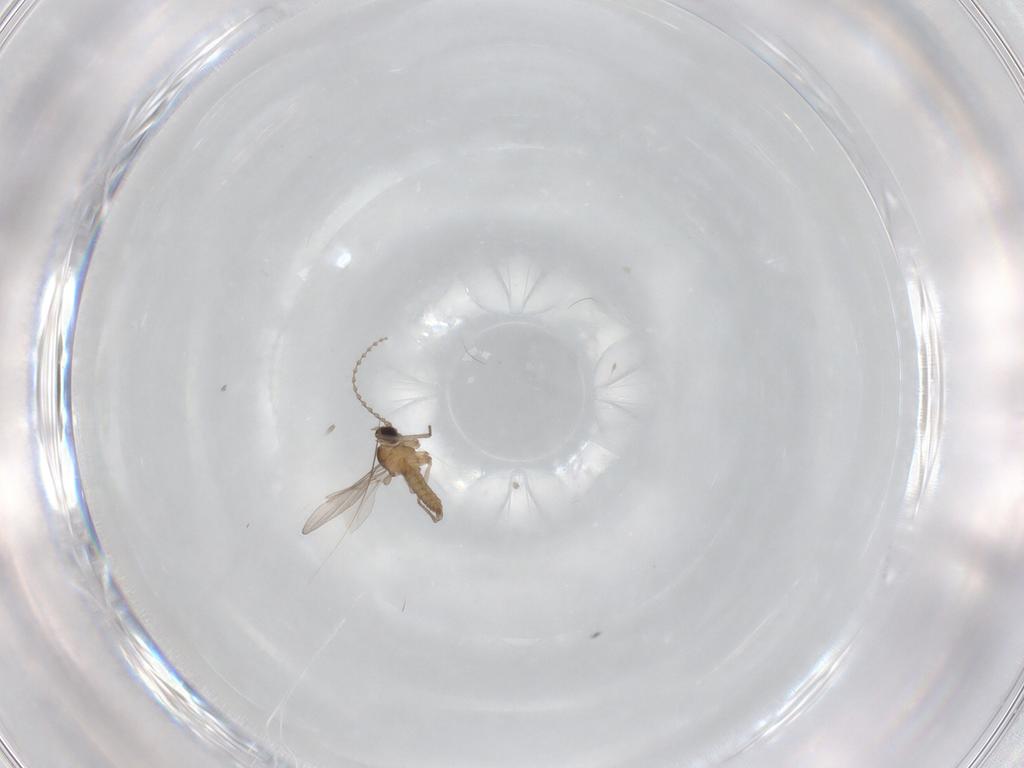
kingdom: Animalia
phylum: Arthropoda
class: Insecta
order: Diptera
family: Cecidomyiidae
